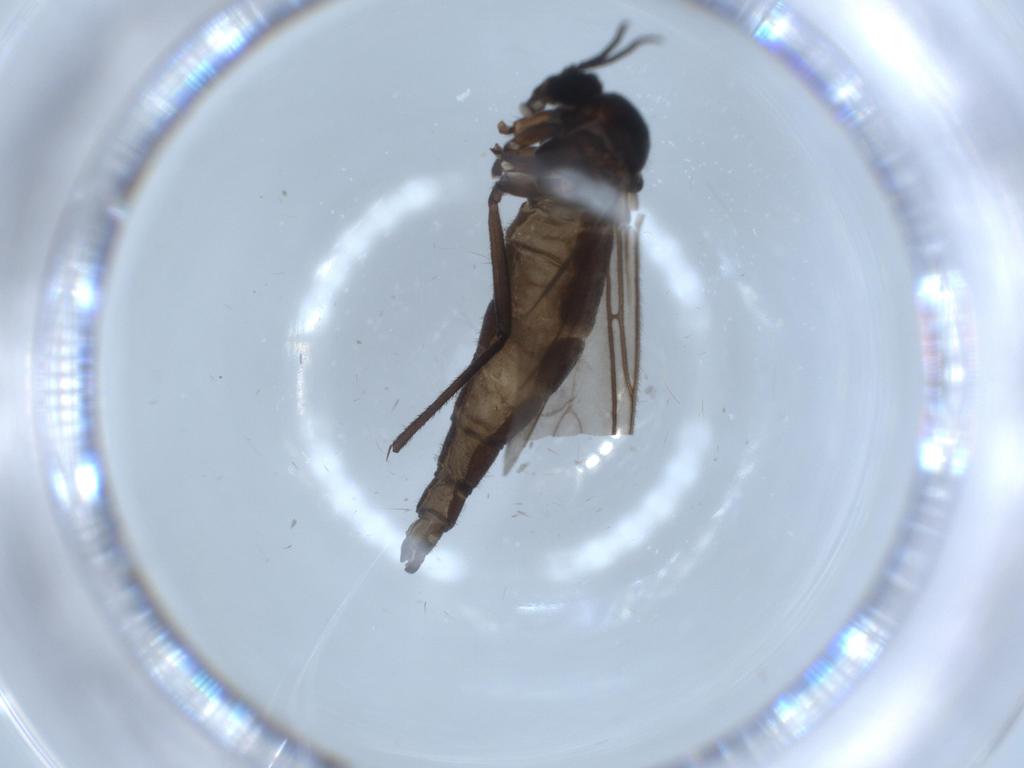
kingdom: Animalia
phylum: Arthropoda
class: Insecta
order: Diptera
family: Sciaridae
